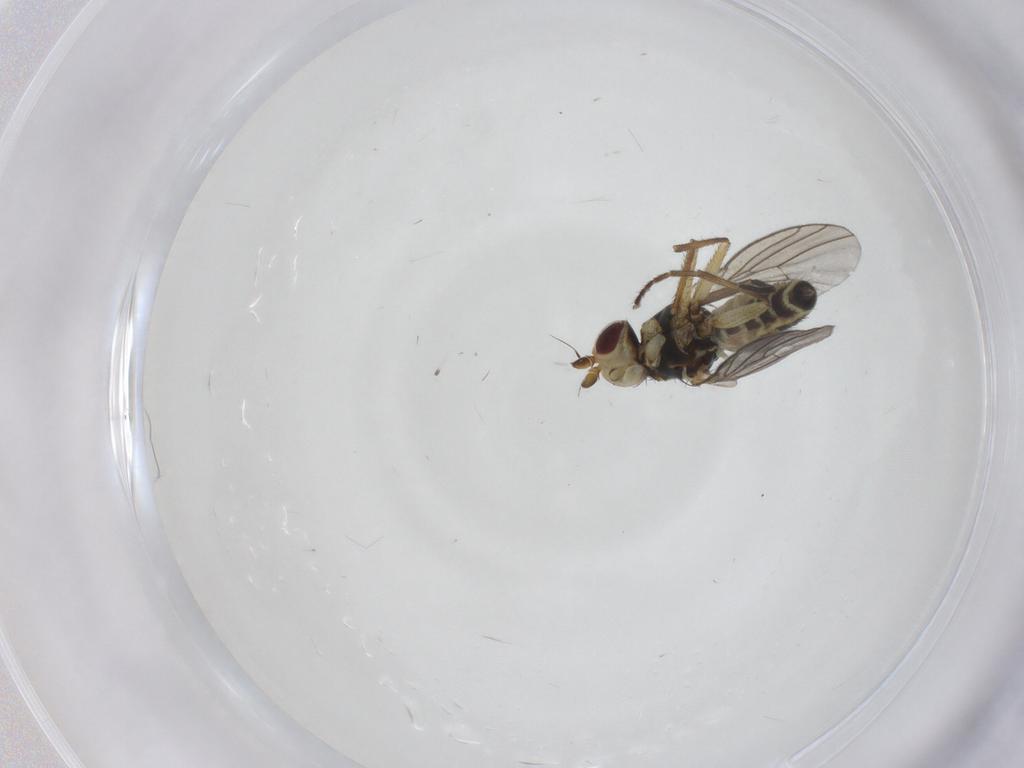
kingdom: Animalia
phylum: Arthropoda
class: Insecta
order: Diptera
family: Agromyzidae
